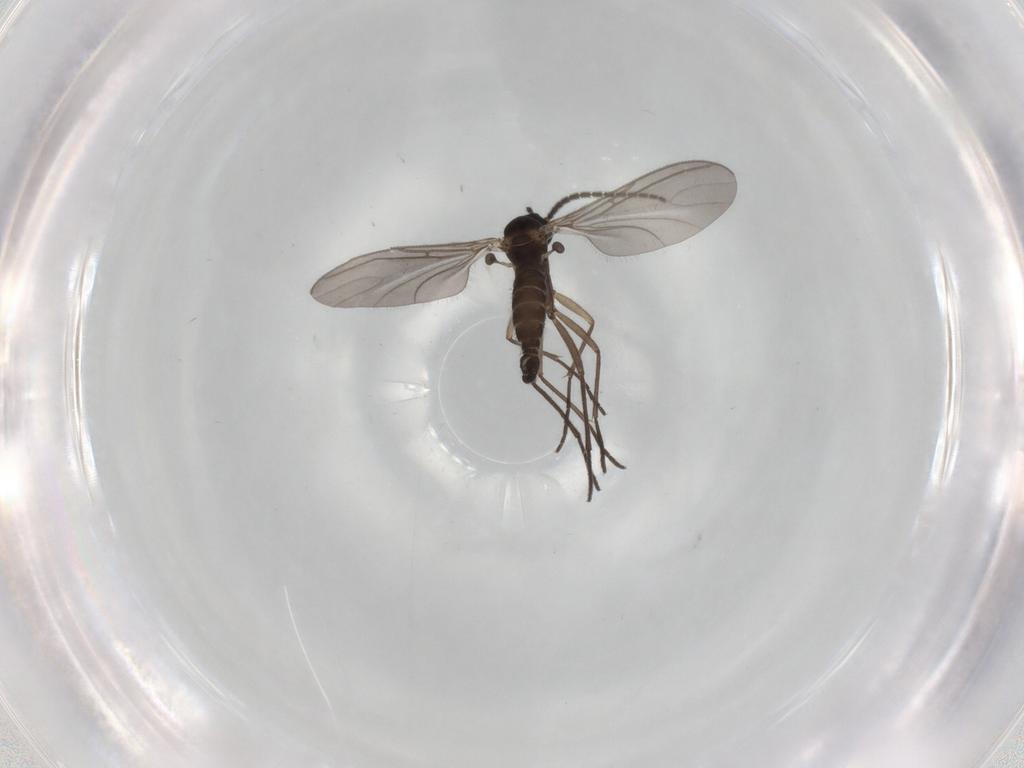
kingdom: Animalia
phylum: Arthropoda
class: Insecta
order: Diptera
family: Sciaridae
